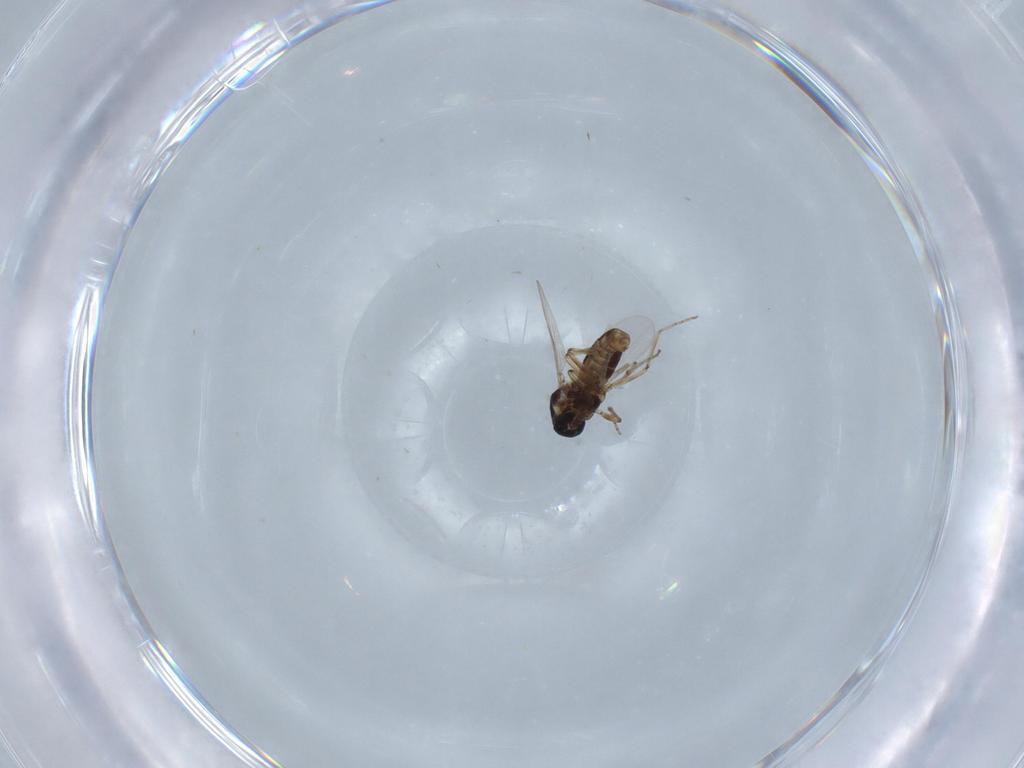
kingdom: Animalia
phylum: Arthropoda
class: Insecta
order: Diptera
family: Ceratopogonidae
